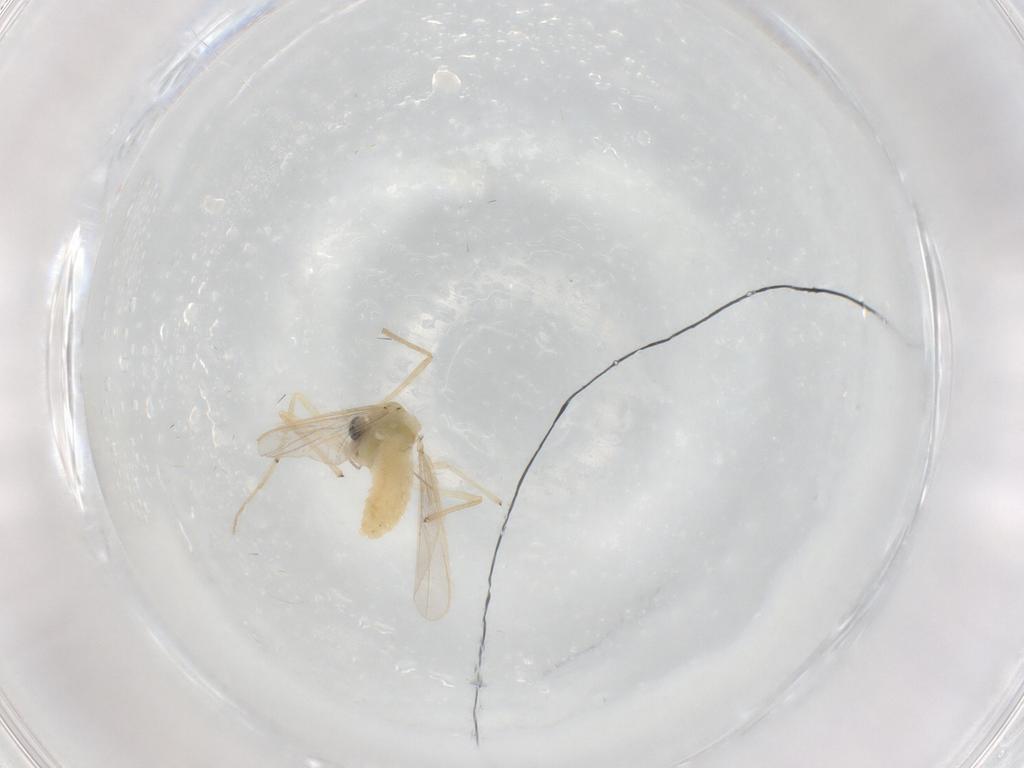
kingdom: Animalia
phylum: Arthropoda
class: Insecta
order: Diptera
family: Chironomidae
